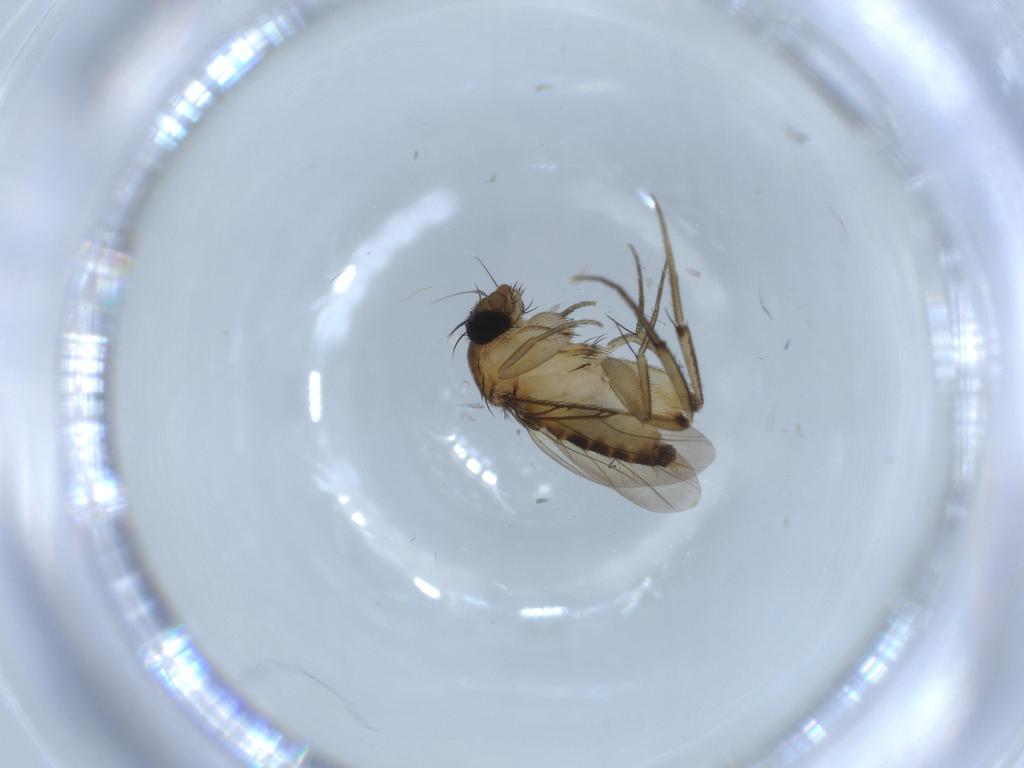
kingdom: Animalia
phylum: Arthropoda
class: Insecta
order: Diptera
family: Phoridae
